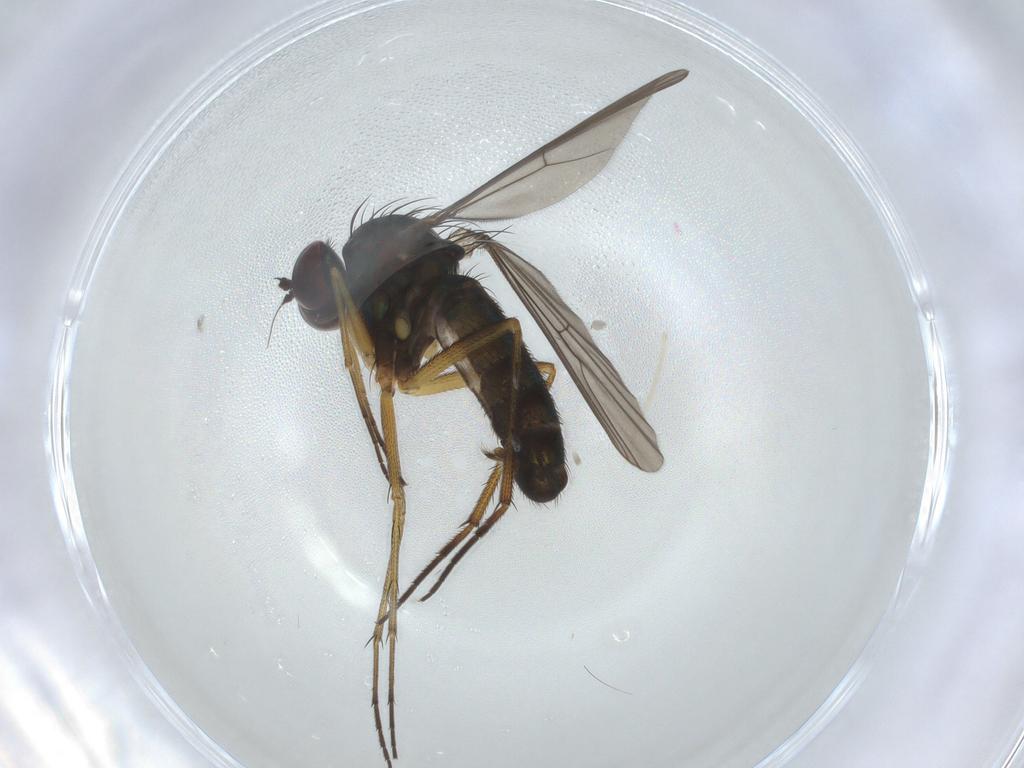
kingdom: Animalia
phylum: Arthropoda
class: Insecta
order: Diptera
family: Dolichopodidae
